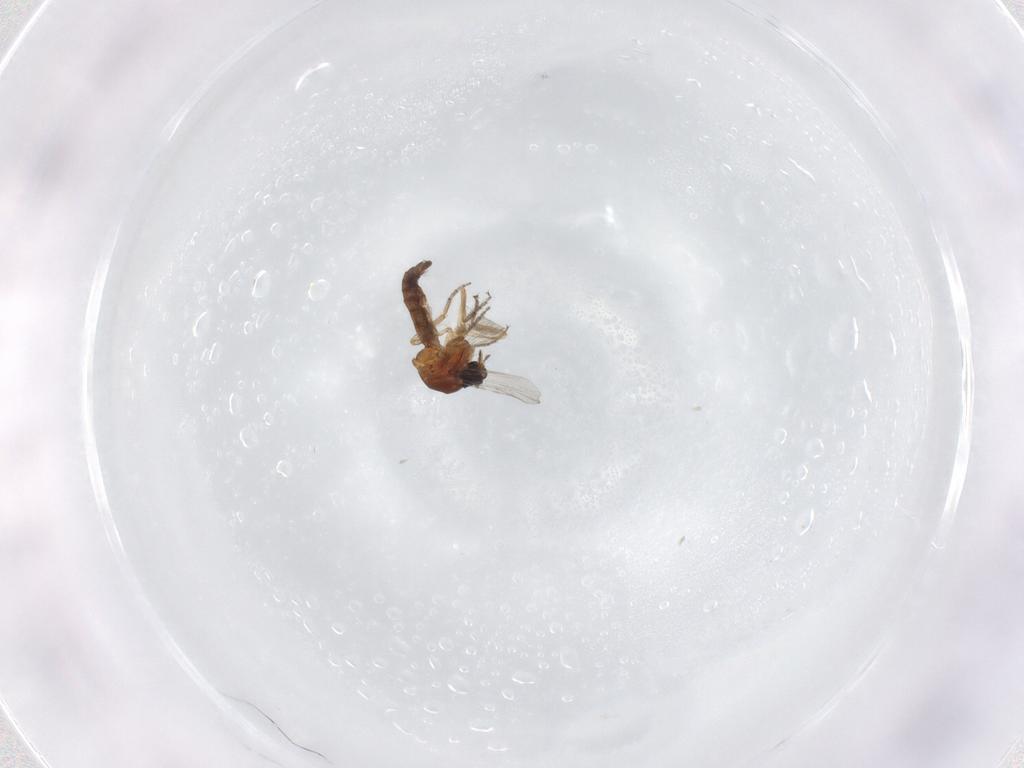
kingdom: Animalia
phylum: Arthropoda
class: Insecta
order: Diptera
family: Ceratopogonidae
